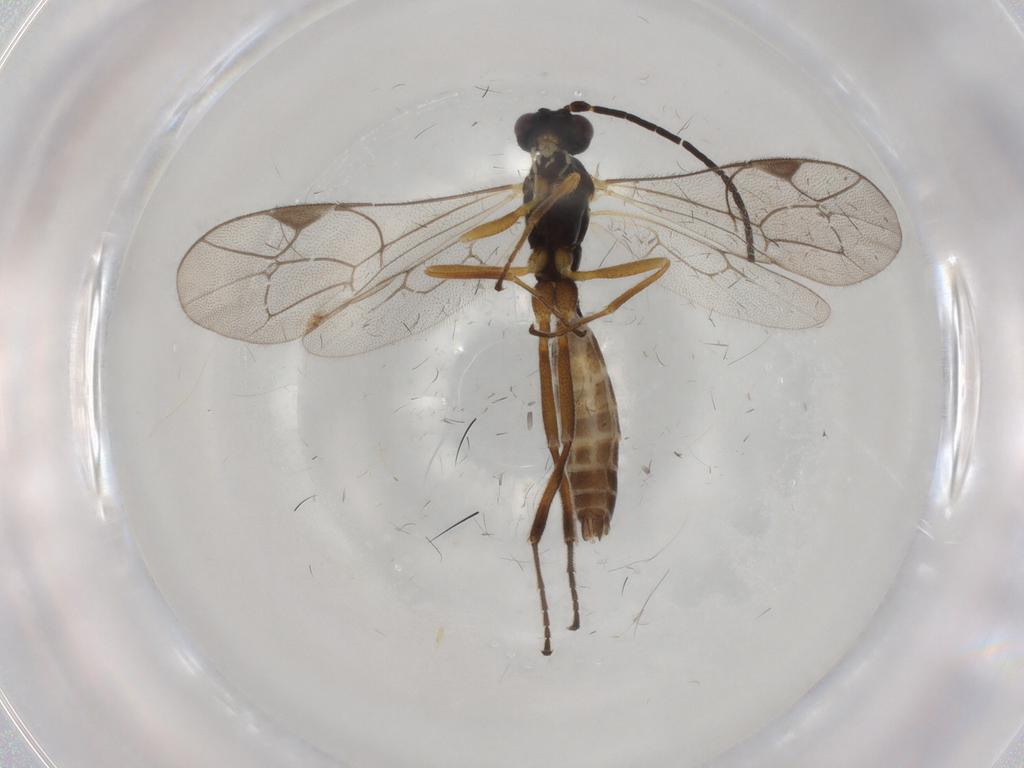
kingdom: Animalia
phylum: Arthropoda
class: Insecta
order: Hymenoptera
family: Ichneumonidae
